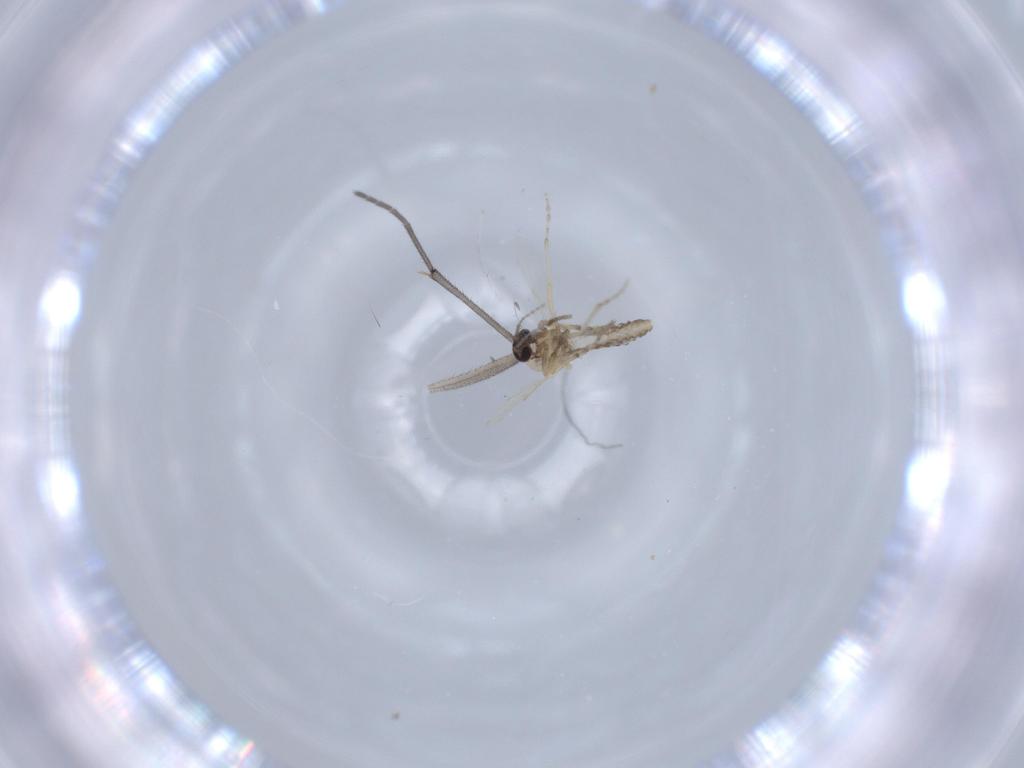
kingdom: Animalia
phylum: Arthropoda
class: Insecta
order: Diptera
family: Sciaridae
